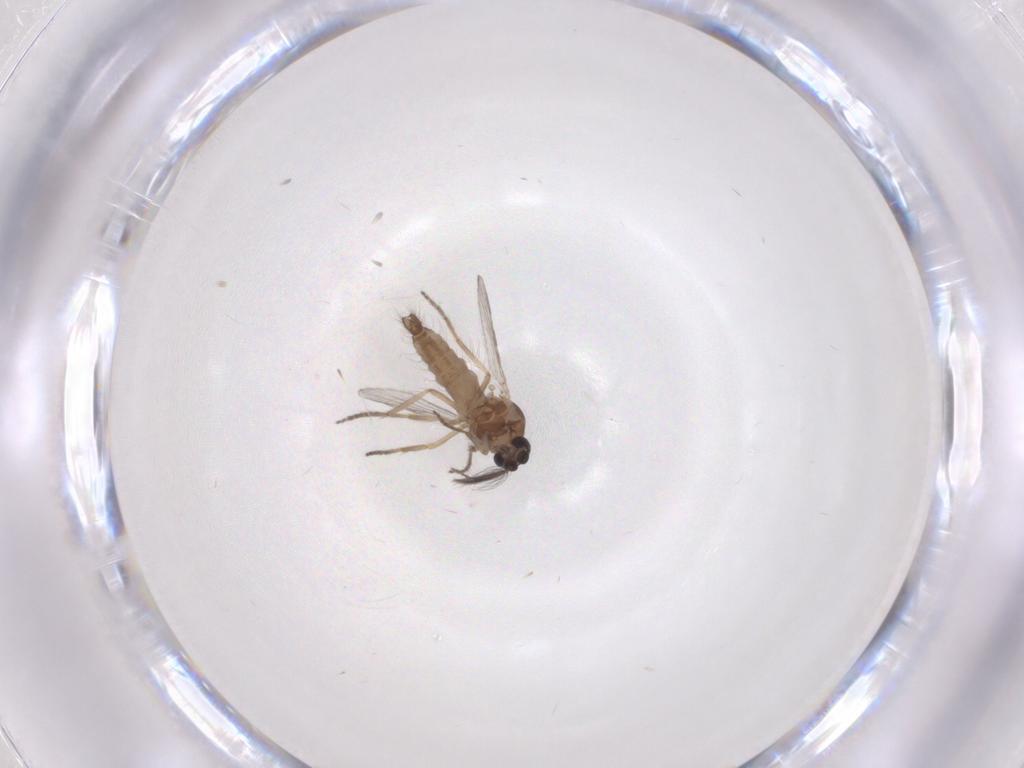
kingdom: Animalia
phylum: Arthropoda
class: Insecta
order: Diptera
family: Ceratopogonidae
